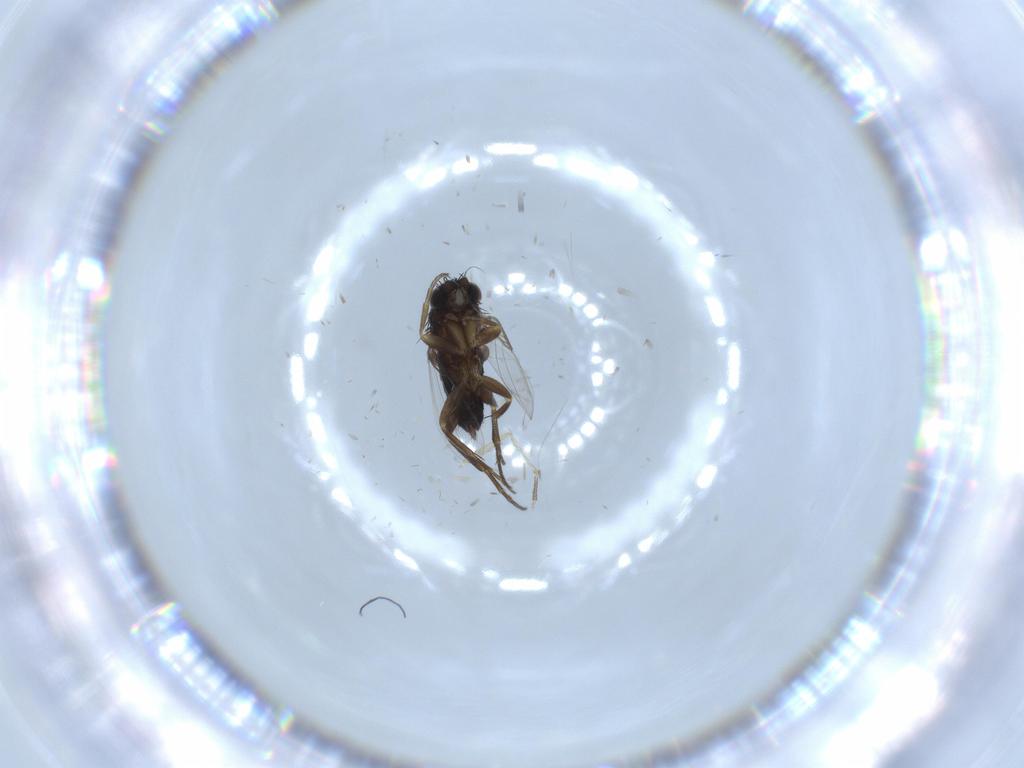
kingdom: Animalia
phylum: Arthropoda
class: Insecta
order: Diptera
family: Phoridae
